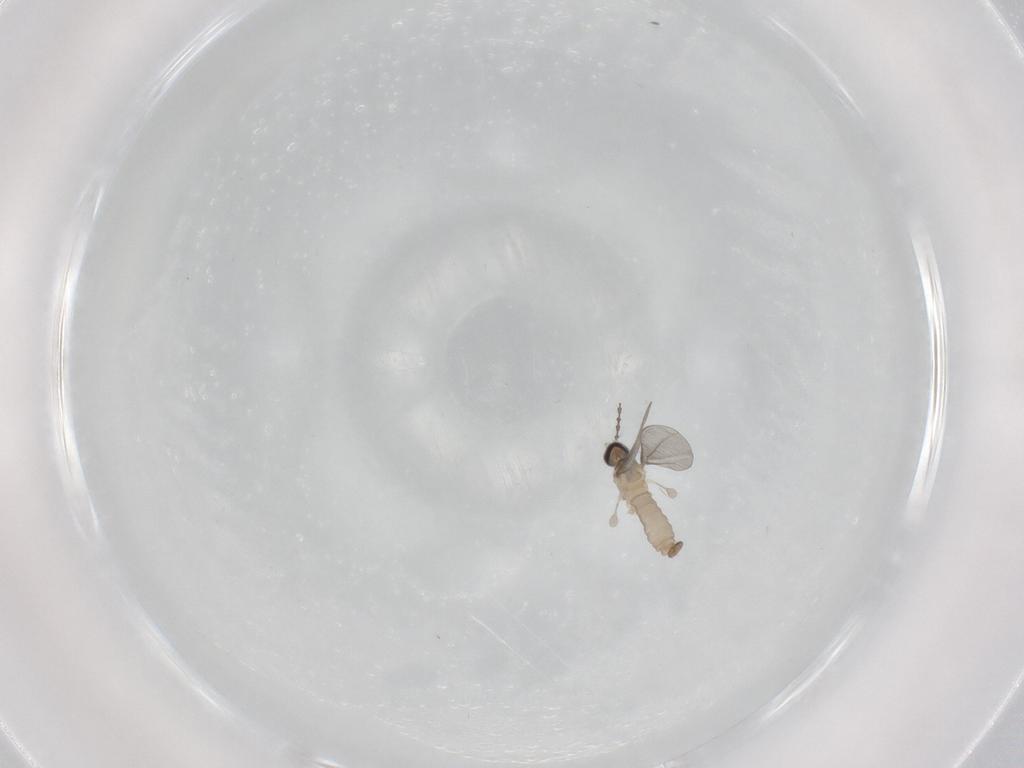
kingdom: Animalia
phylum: Arthropoda
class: Insecta
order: Diptera
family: Cecidomyiidae
